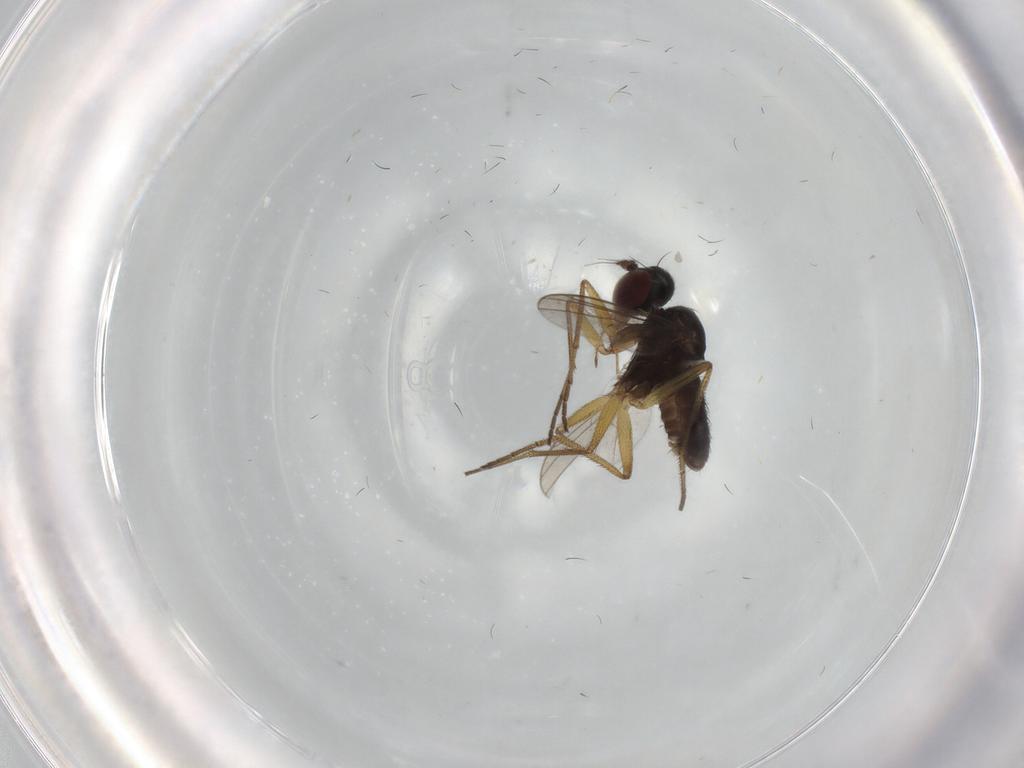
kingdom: Animalia
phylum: Arthropoda
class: Insecta
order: Diptera
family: Dolichopodidae
